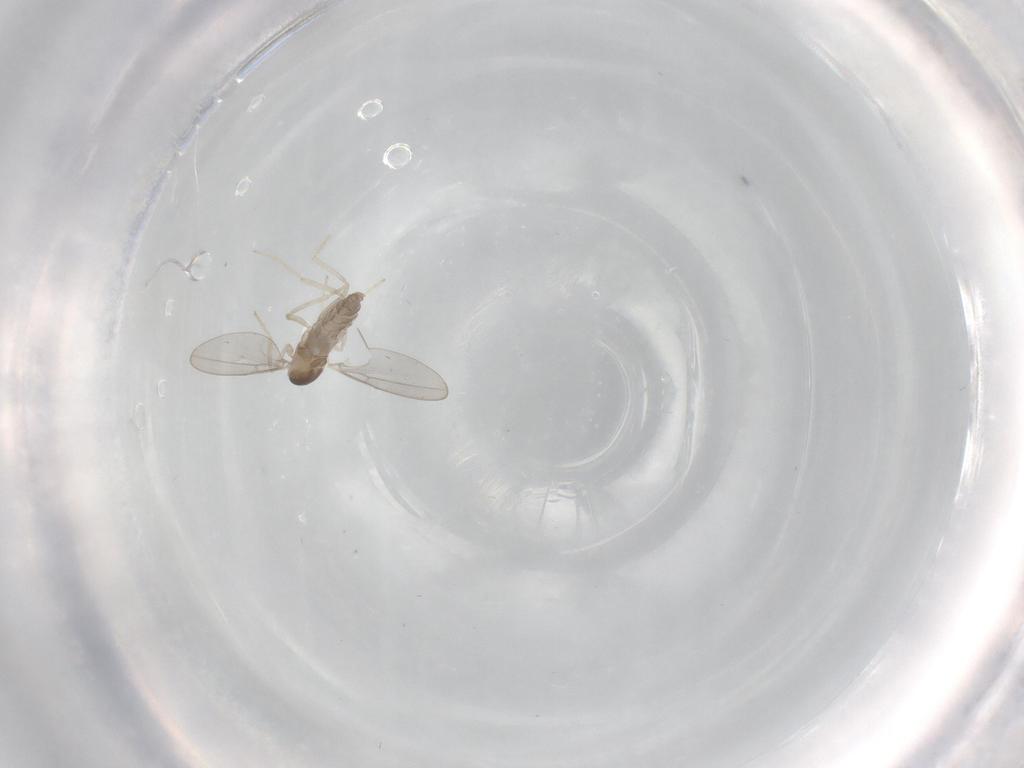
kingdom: Animalia
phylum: Arthropoda
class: Insecta
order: Diptera
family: Cecidomyiidae
